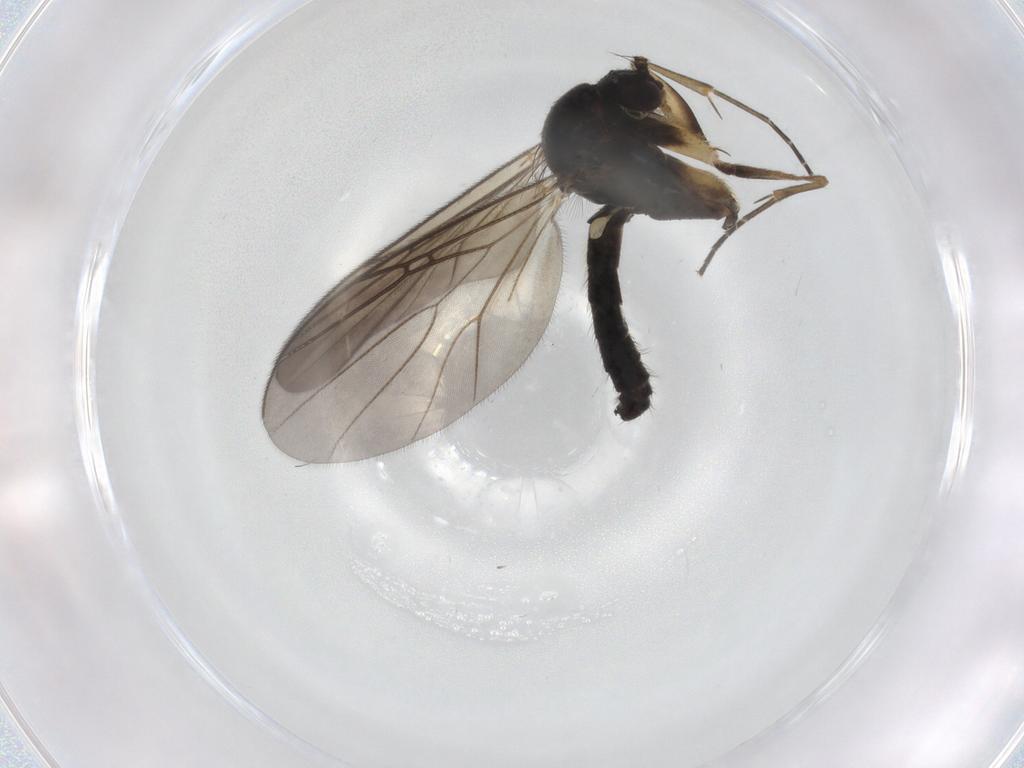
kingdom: Animalia
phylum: Arthropoda
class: Insecta
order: Diptera
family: Mycetophilidae
